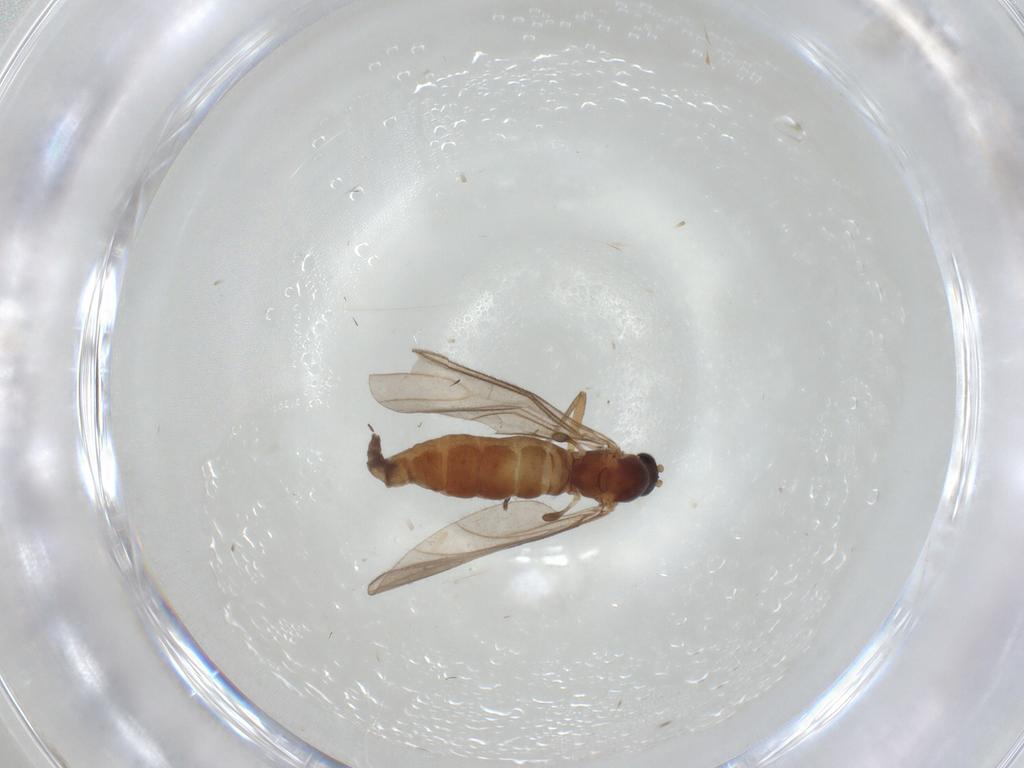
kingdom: Animalia
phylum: Arthropoda
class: Insecta
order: Diptera
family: Sciaridae
